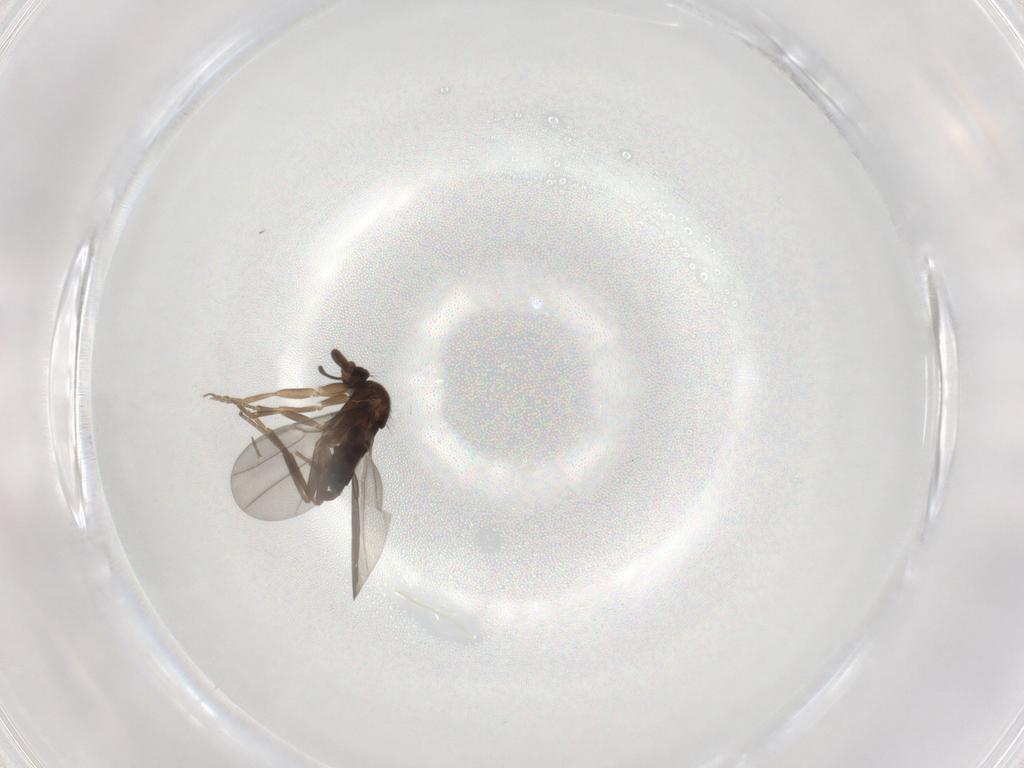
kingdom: Animalia
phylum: Arthropoda
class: Insecta
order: Diptera
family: Phoridae
